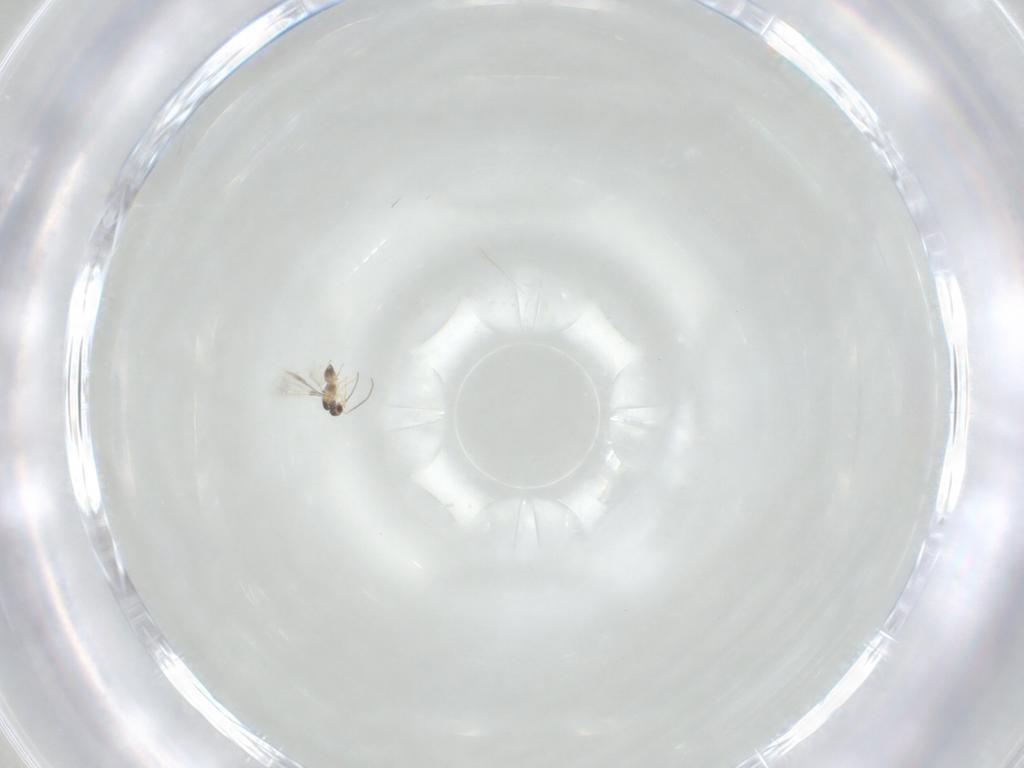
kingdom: Animalia
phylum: Arthropoda
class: Insecta
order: Hymenoptera
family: Mymaridae
